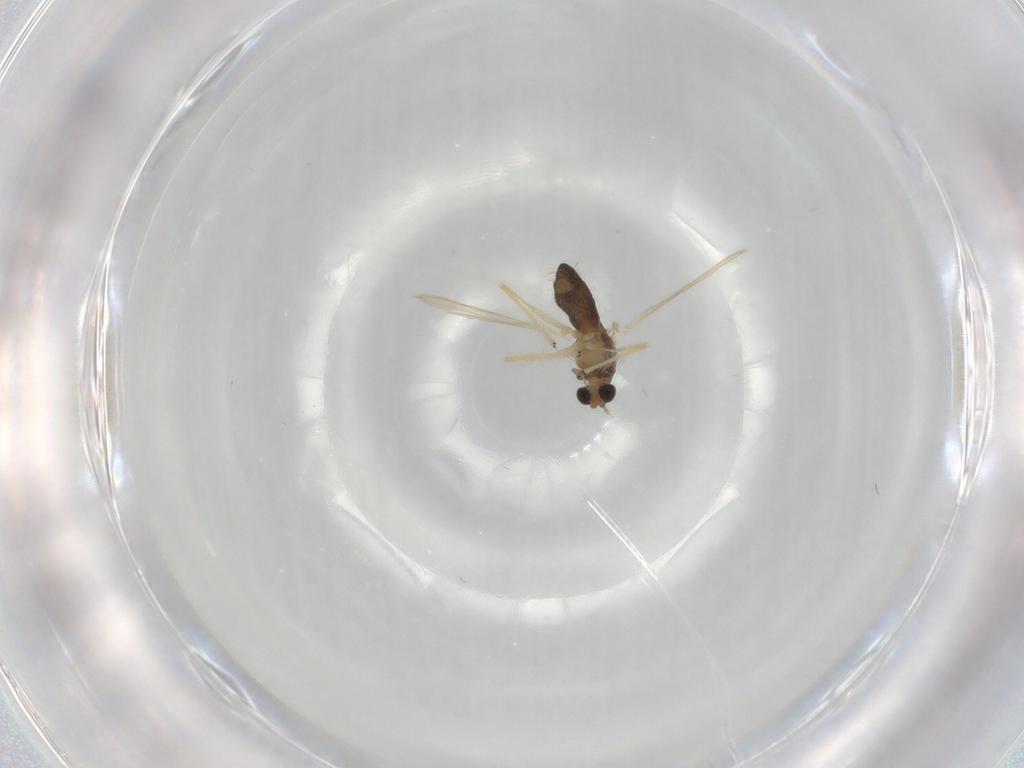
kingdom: Animalia
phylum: Arthropoda
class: Insecta
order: Diptera
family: Chironomidae
